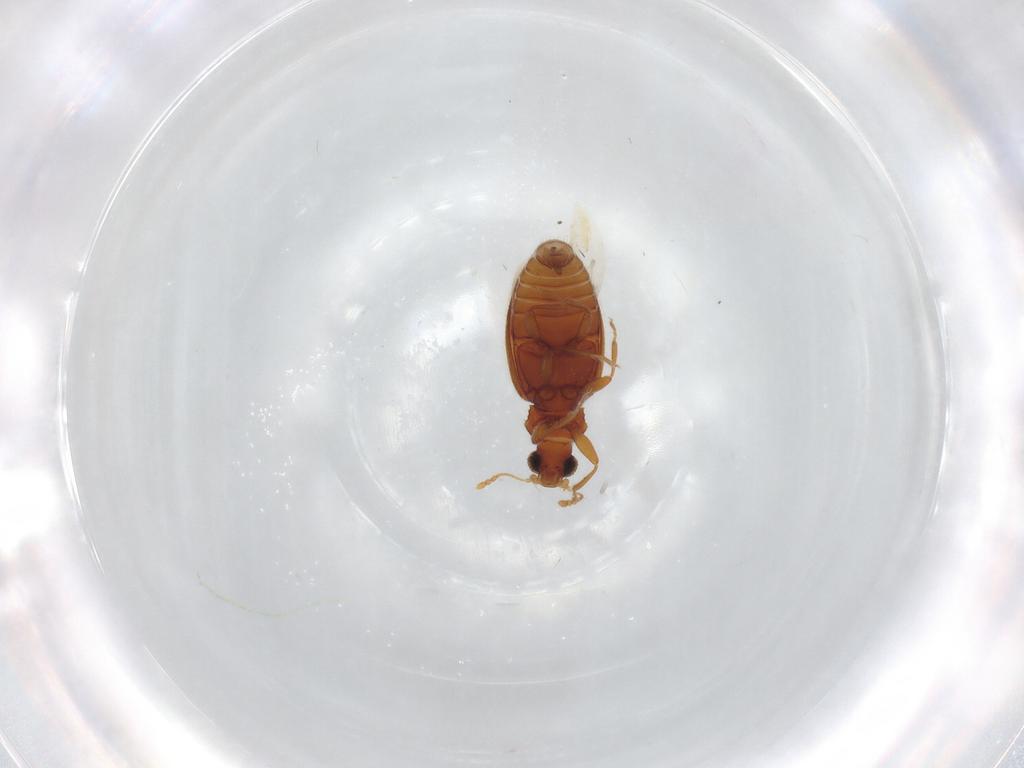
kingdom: Animalia
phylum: Arthropoda
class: Insecta
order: Coleoptera
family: Latridiidae
